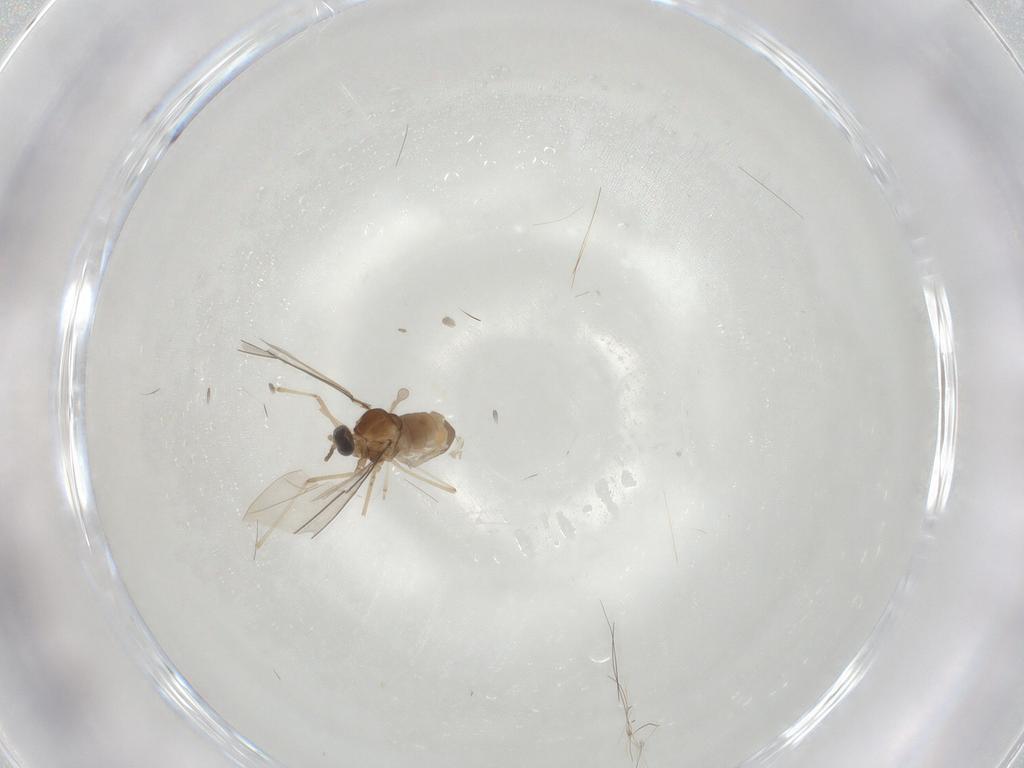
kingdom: Animalia
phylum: Arthropoda
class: Insecta
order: Diptera
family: Cecidomyiidae
